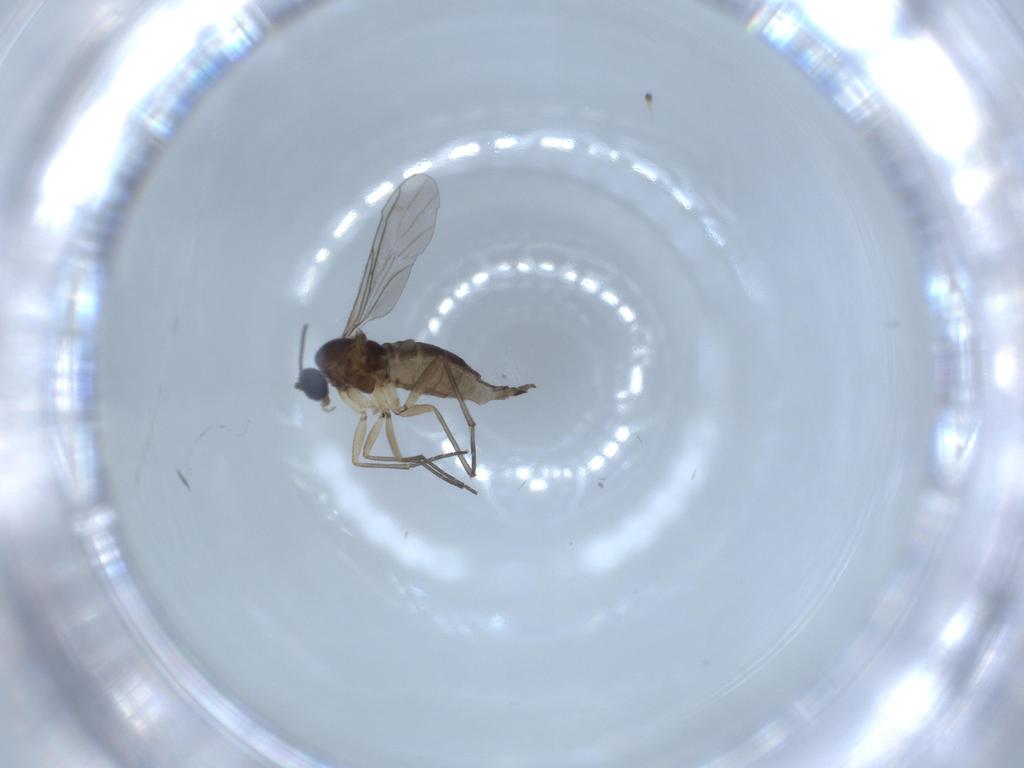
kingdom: Animalia
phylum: Arthropoda
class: Insecta
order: Diptera
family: Sciaridae
